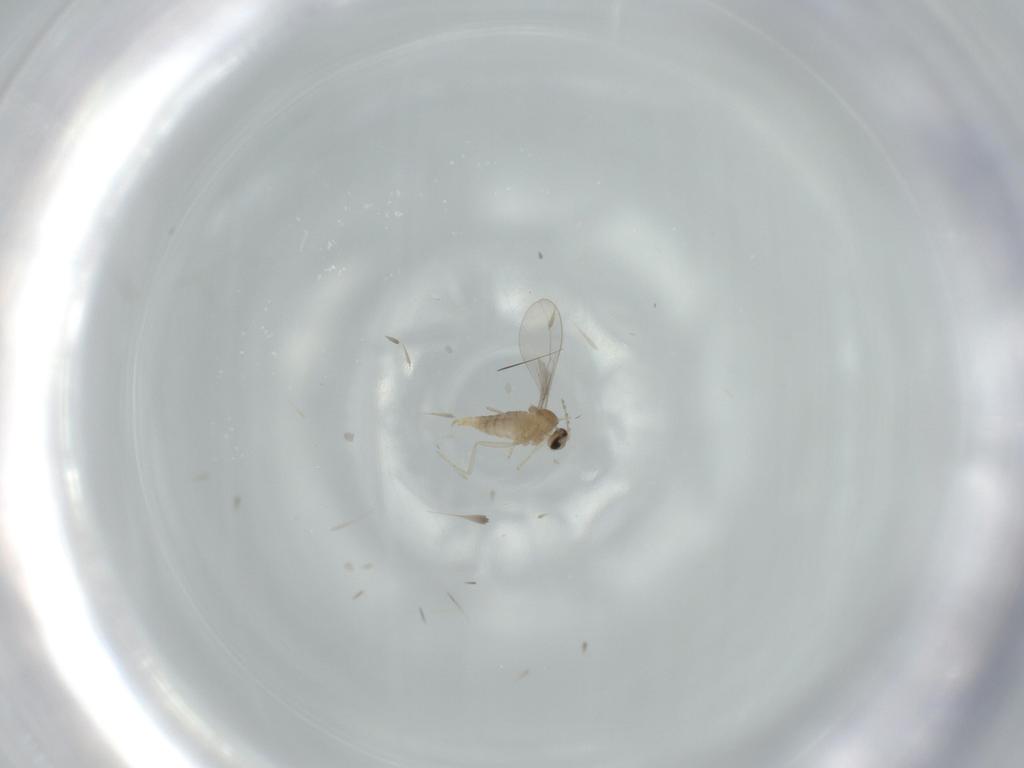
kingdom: Animalia
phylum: Arthropoda
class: Insecta
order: Diptera
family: Cecidomyiidae
